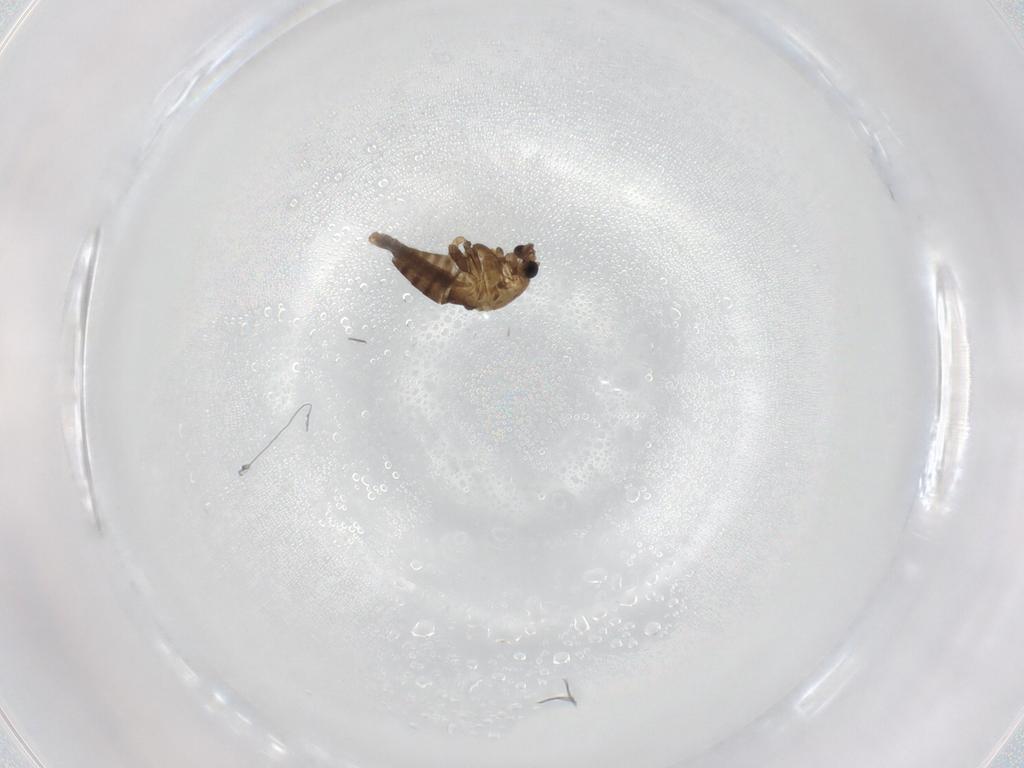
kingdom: Animalia
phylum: Arthropoda
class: Insecta
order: Diptera
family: Chironomidae
